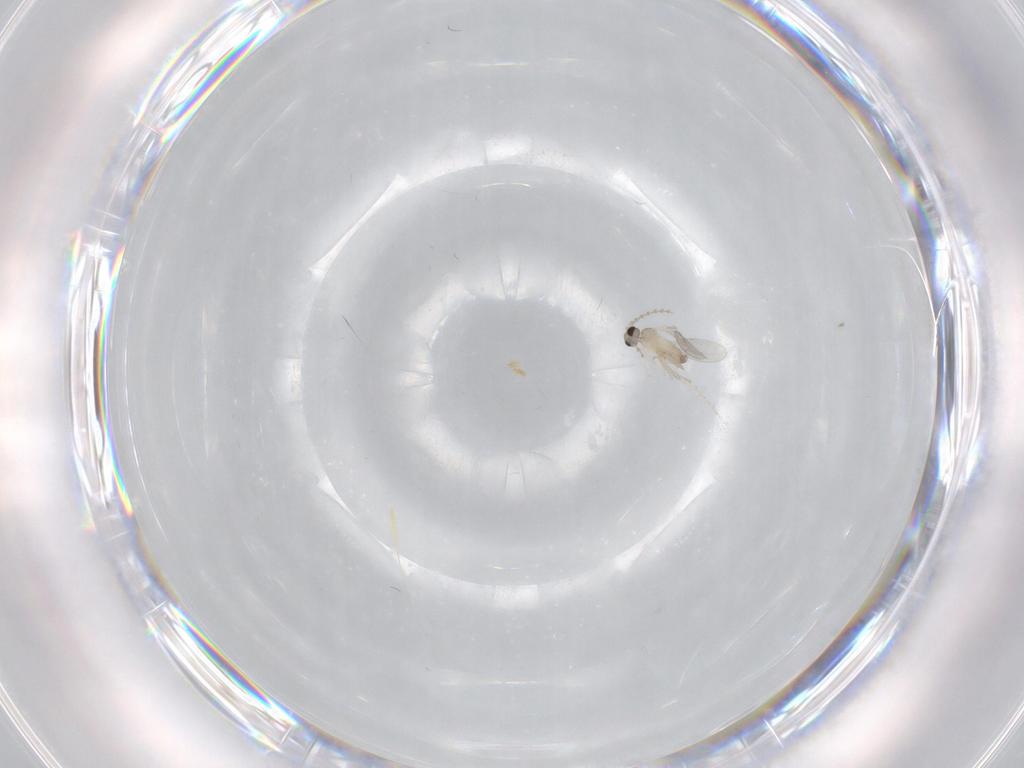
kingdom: Animalia
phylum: Arthropoda
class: Insecta
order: Diptera
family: Cecidomyiidae
